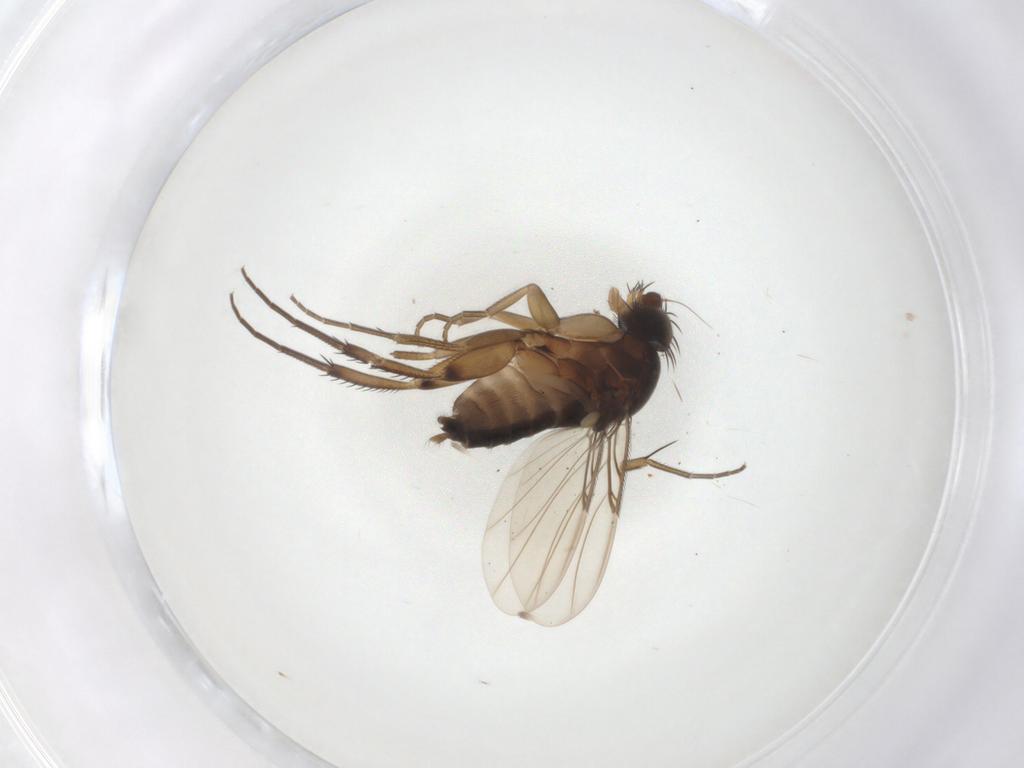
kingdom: Animalia
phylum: Arthropoda
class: Insecta
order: Diptera
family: Phoridae
